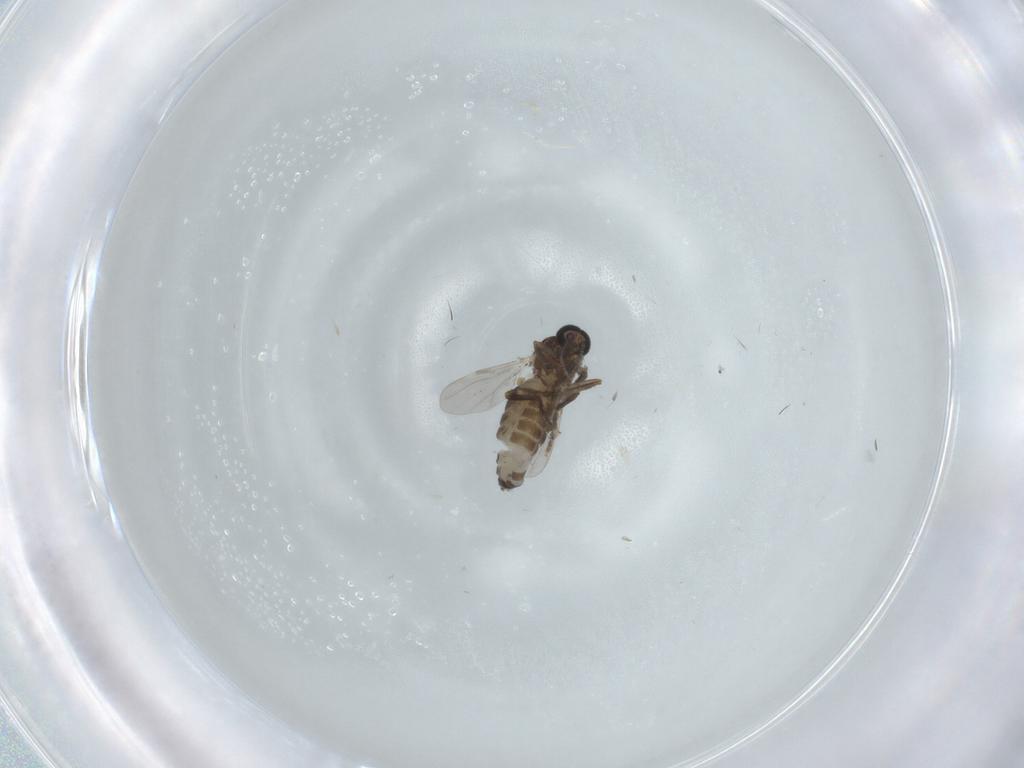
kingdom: Animalia
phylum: Arthropoda
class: Insecta
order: Diptera
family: Ceratopogonidae
